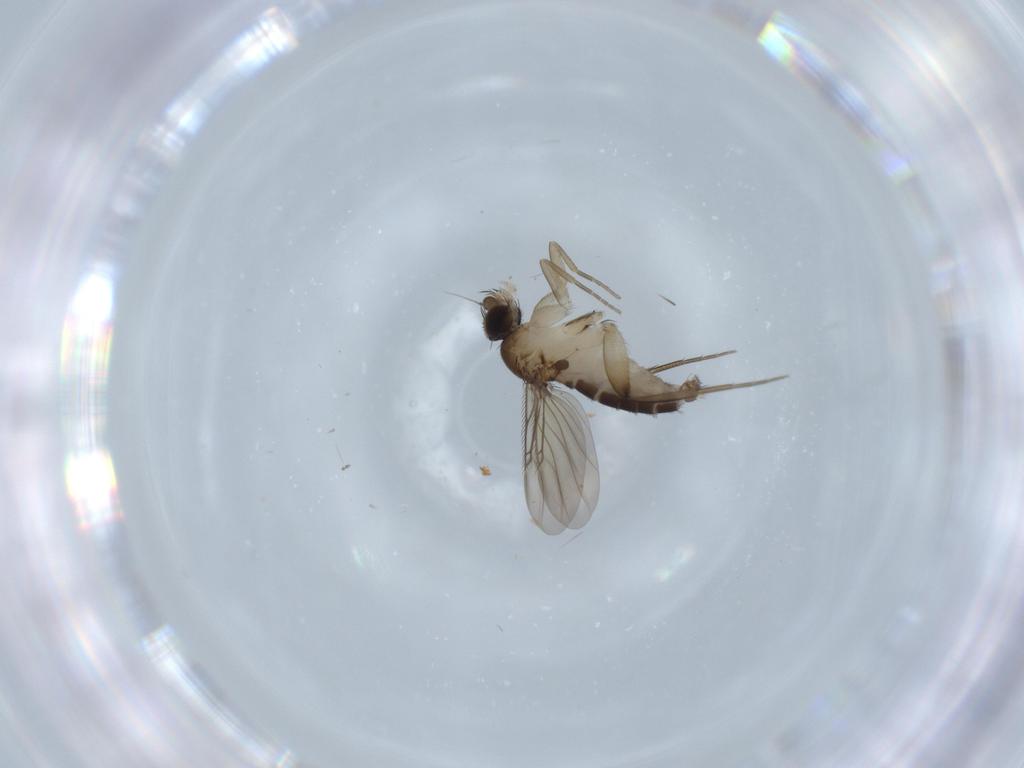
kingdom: Animalia
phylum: Arthropoda
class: Insecta
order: Diptera
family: Phoridae
